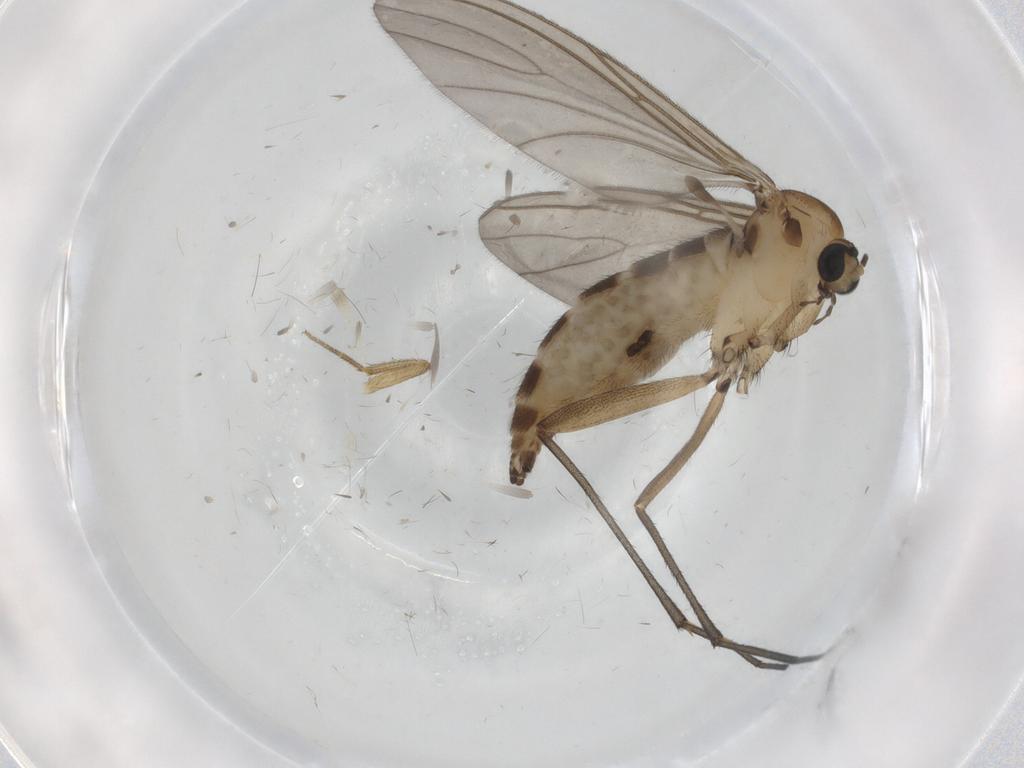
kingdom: Animalia
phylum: Arthropoda
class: Insecta
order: Diptera
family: Sciaridae
